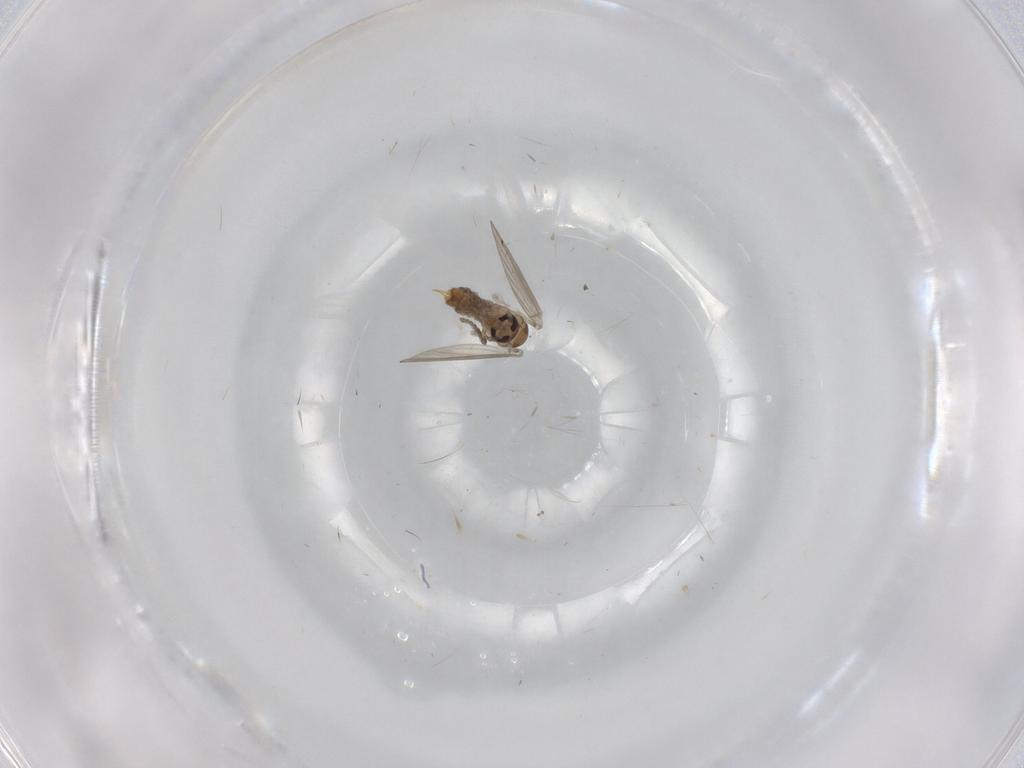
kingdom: Animalia
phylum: Arthropoda
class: Insecta
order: Diptera
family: Psychodidae
